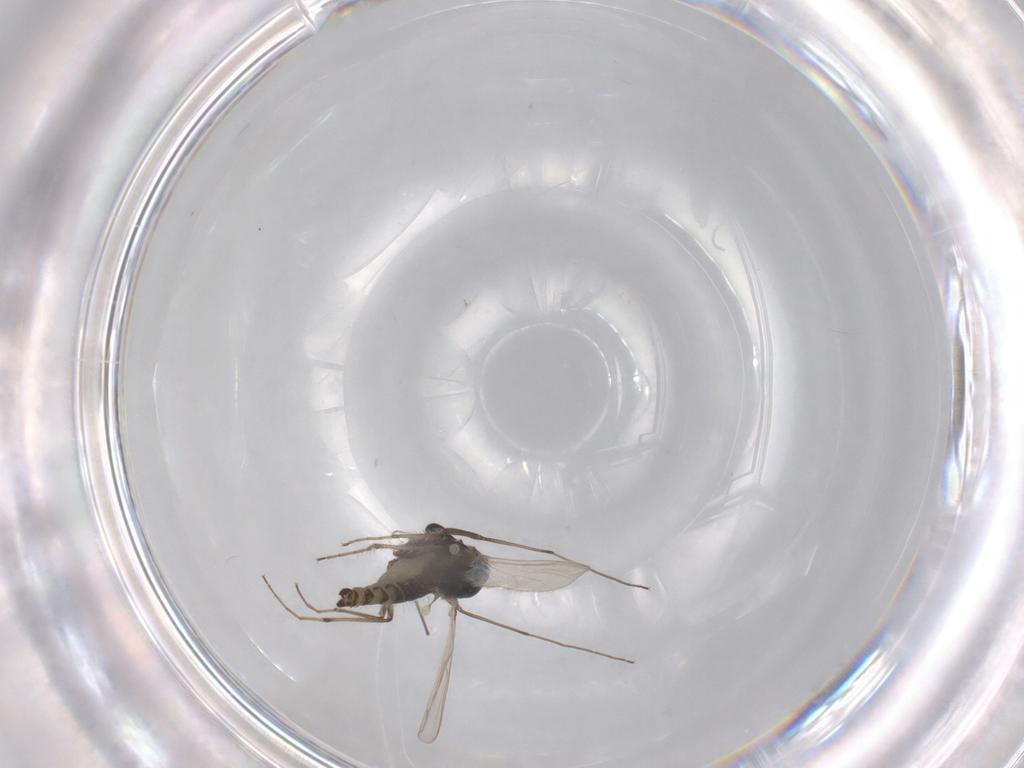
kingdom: Animalia
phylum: Arthropoda
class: Insecta
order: Diptera
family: Chironomidae
